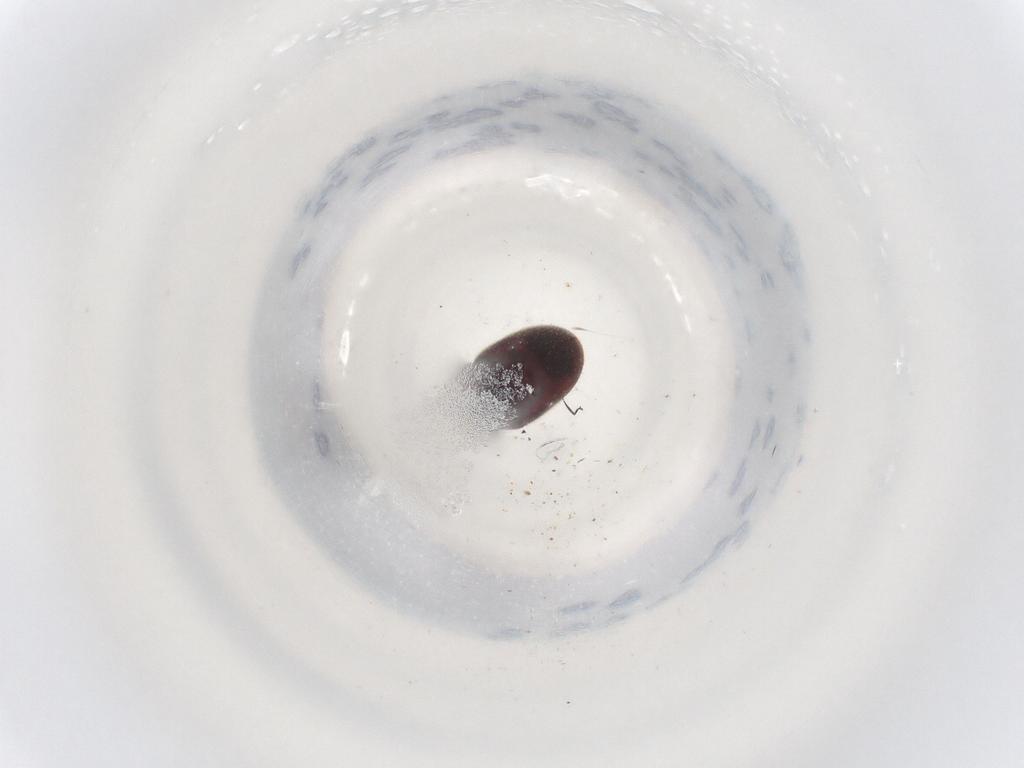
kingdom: Animalia
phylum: Arthropoda
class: Insecta
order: Coleoptera
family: Ptinidae
